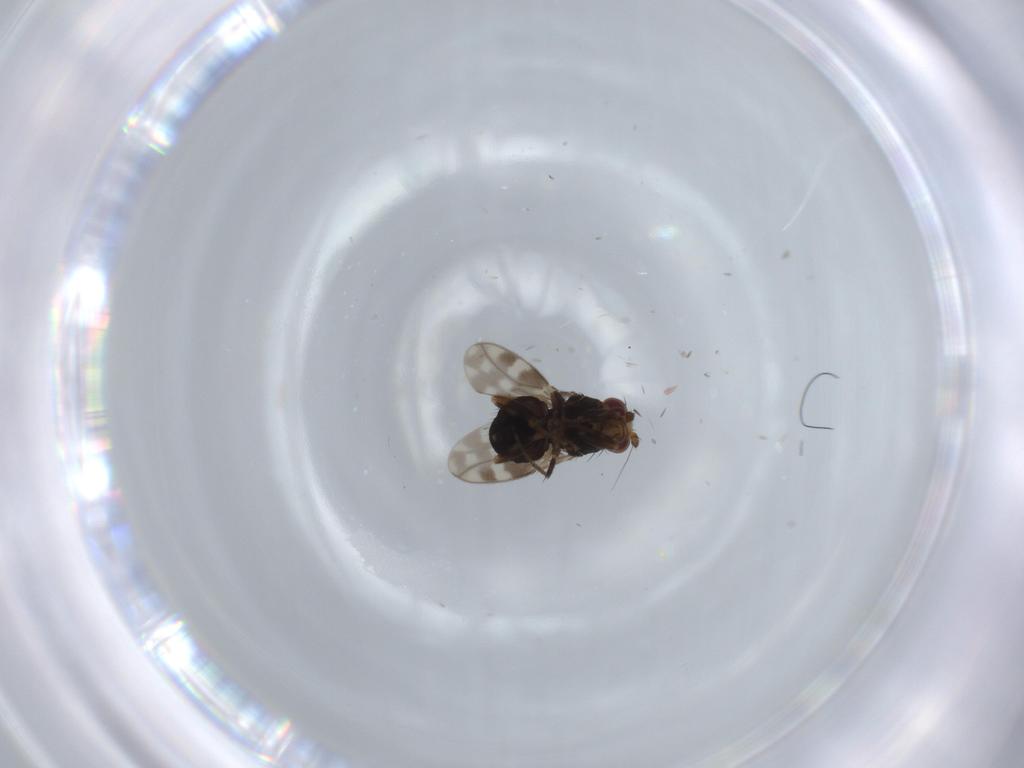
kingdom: Animalia
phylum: Arthropoda
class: Insecta
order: Diptera
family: Sphaeroceridae
